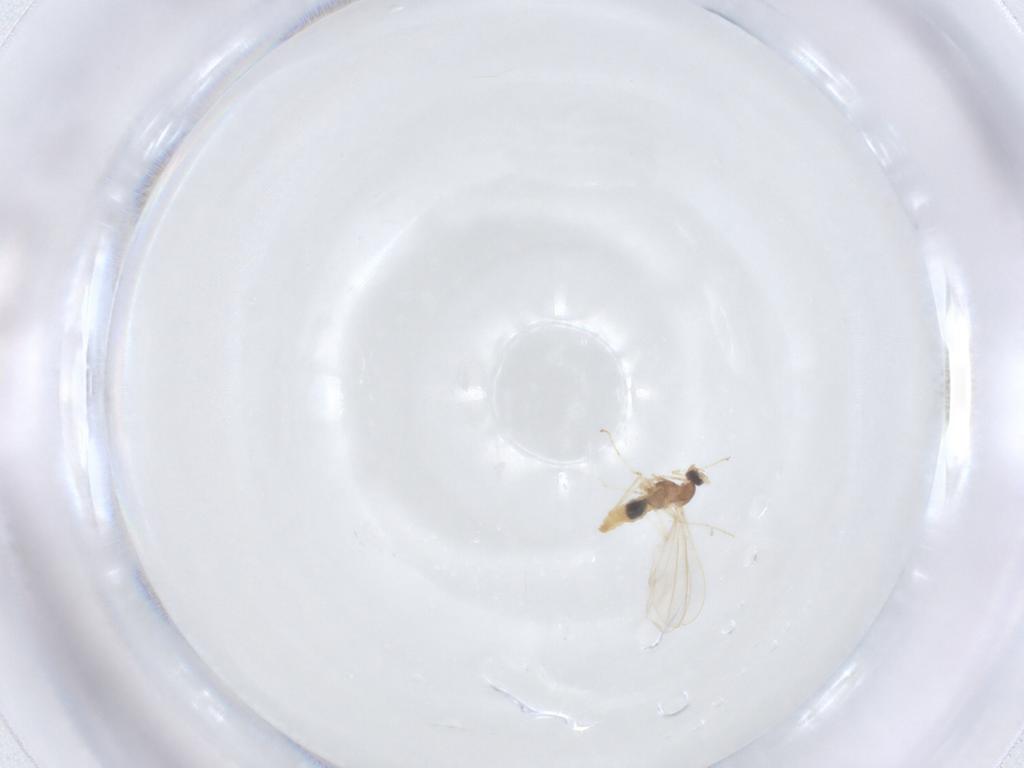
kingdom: Animalia
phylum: Arthropoda
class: Insecta
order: Diptera
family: Cecidomyiidae
